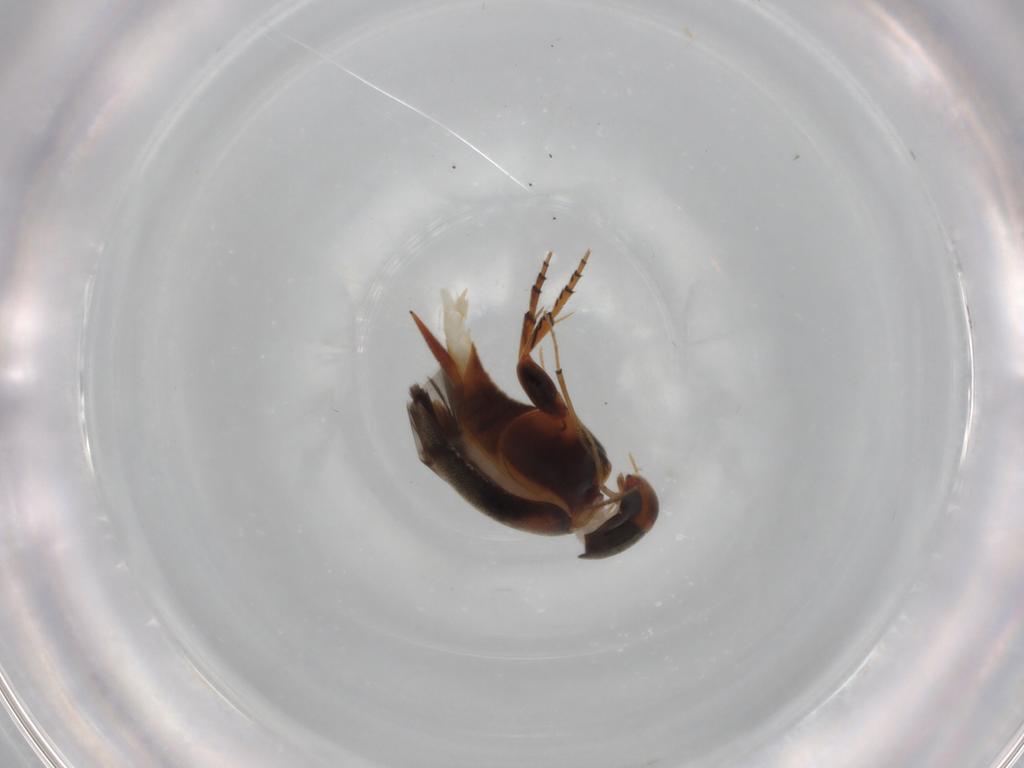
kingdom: Animalia
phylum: Arthropoda
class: Insecta
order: Coleoptera
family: Mordellidae
